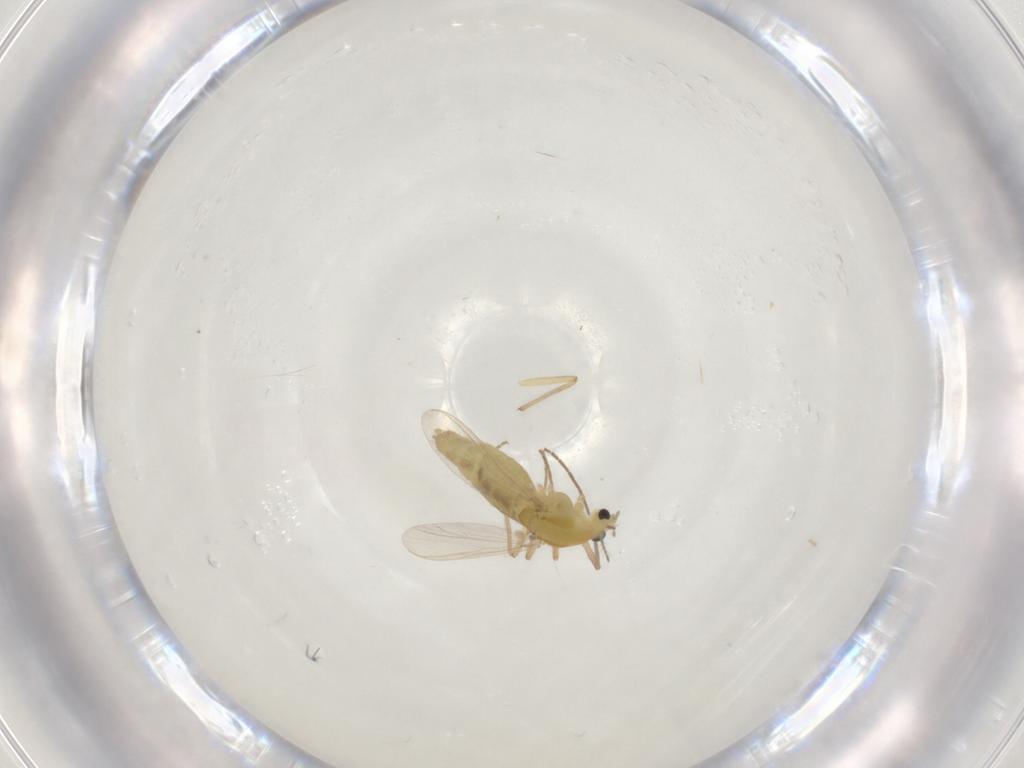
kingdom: Animalia
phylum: Arthropoda
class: Insecta
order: Diptera
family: Chironomidae
